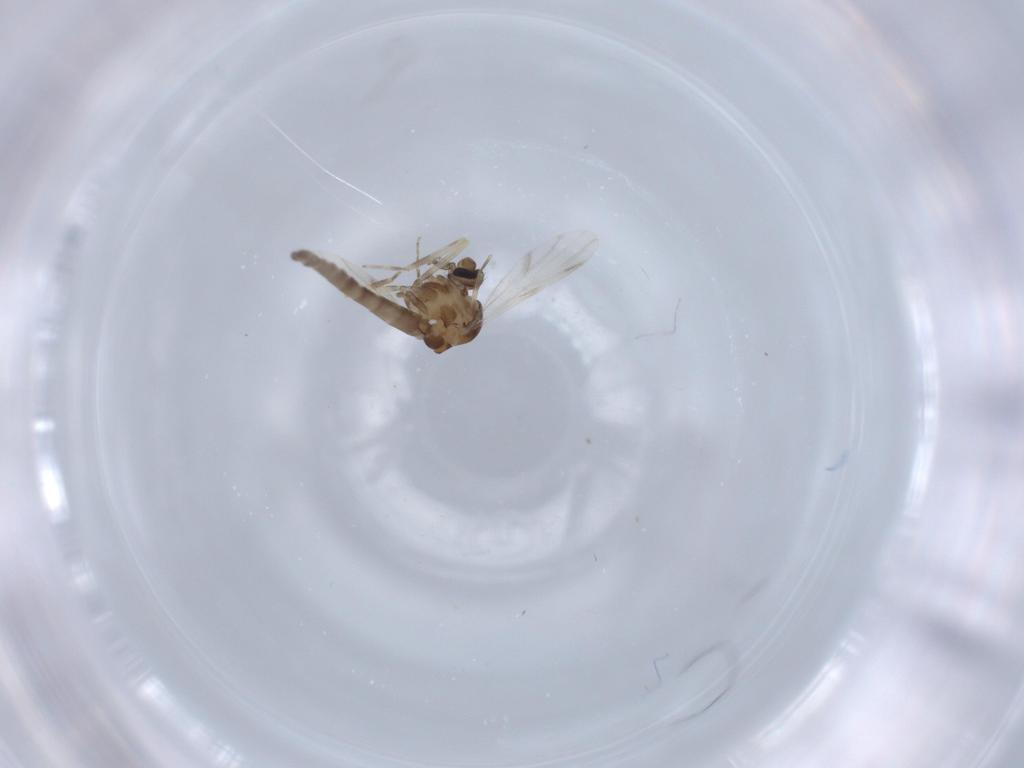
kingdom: Animalia
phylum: Arthropoda
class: Insecta
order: Diptera
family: Ceratopogonidae
